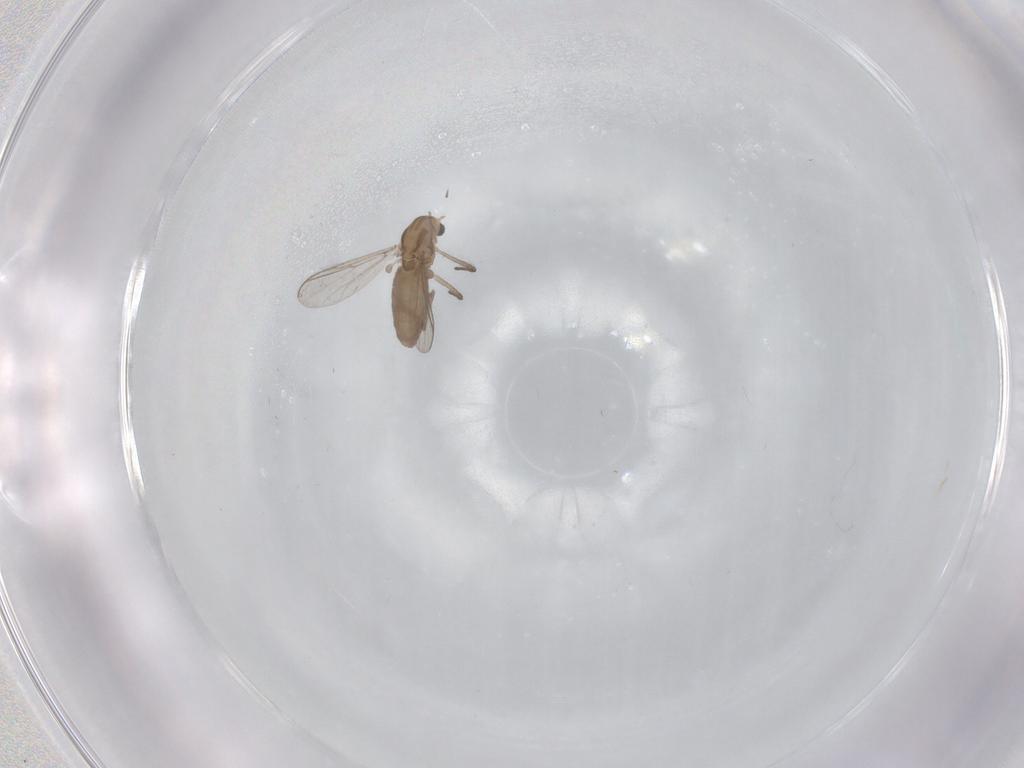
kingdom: Animalia
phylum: Arthropoda
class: Insecta
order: Diptera
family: Chironomidae
